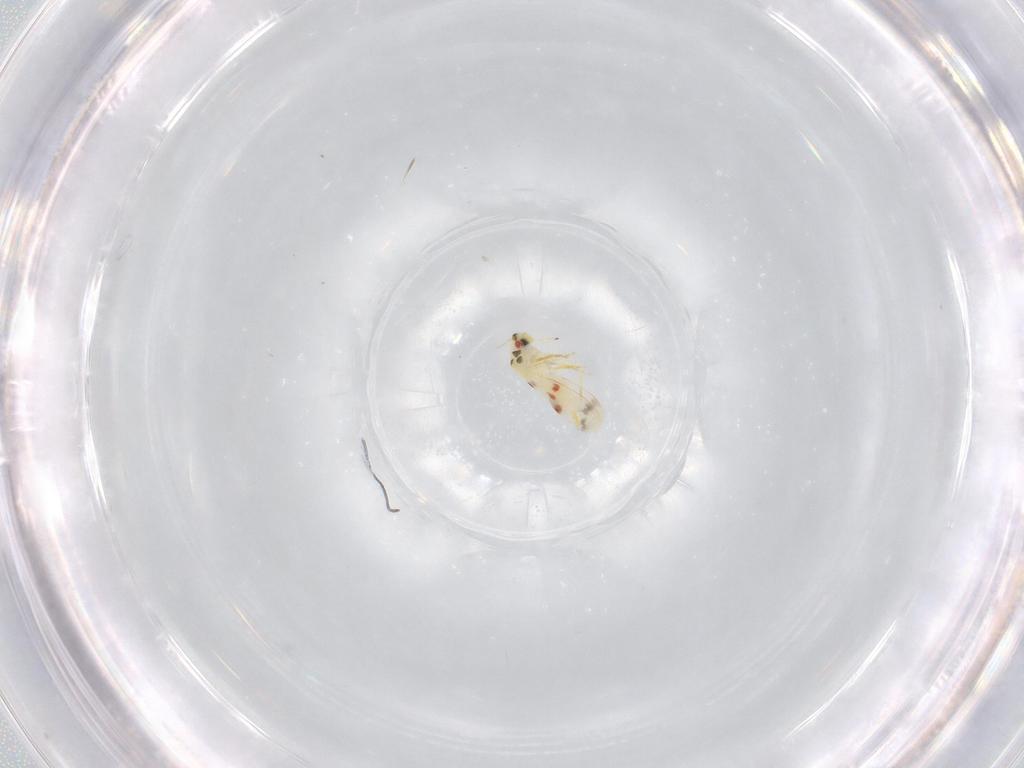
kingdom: Animalia
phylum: Arthropoda
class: Insecta
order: Hemiptera
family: Aleyrodidae
